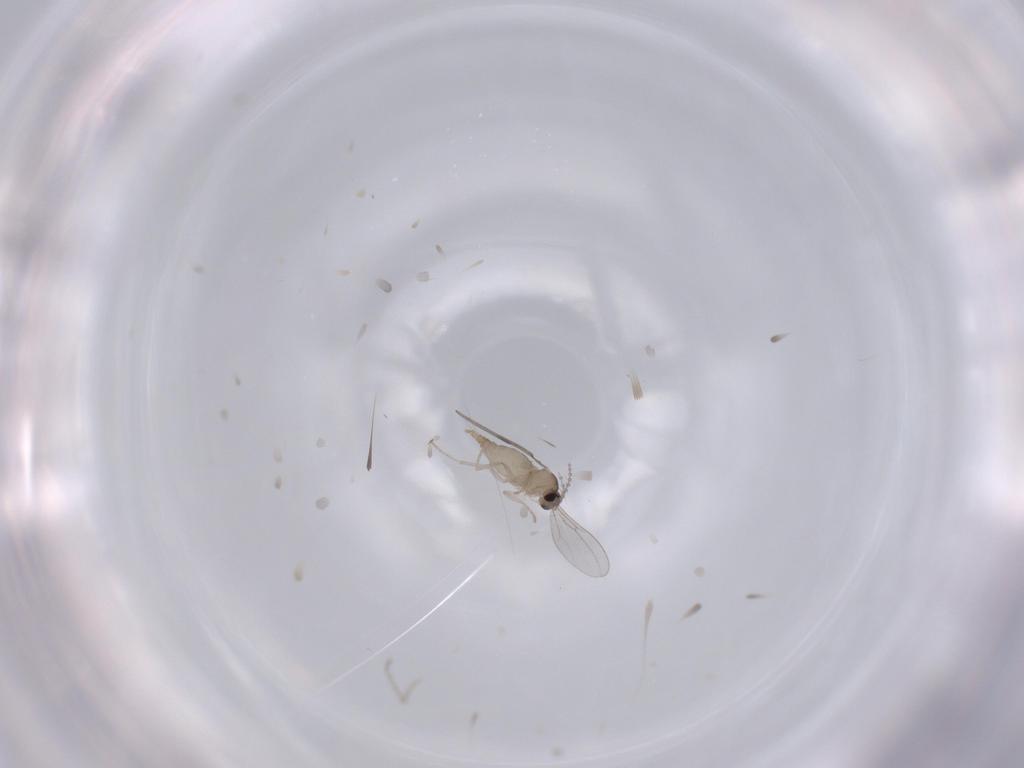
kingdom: Animalia
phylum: Arthropoda
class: Insecta
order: Diptera
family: Cecidomyiidae
